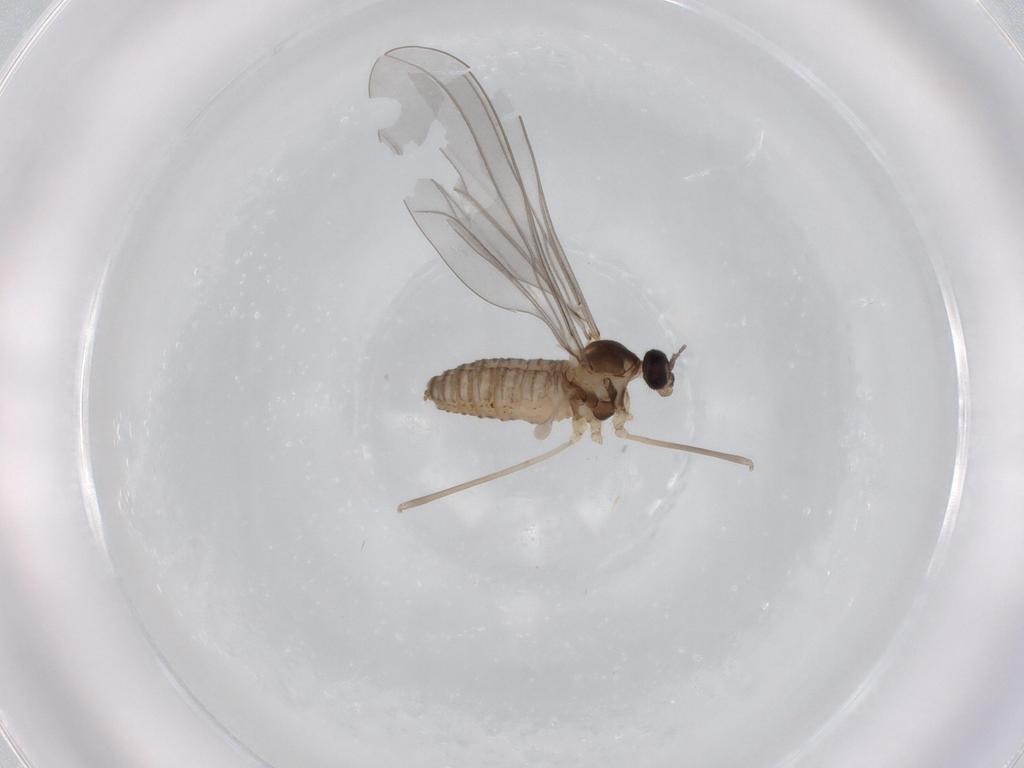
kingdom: Animalia
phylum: Arthropoda
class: Insecta
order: Diptera
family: Cecidomyiidae
